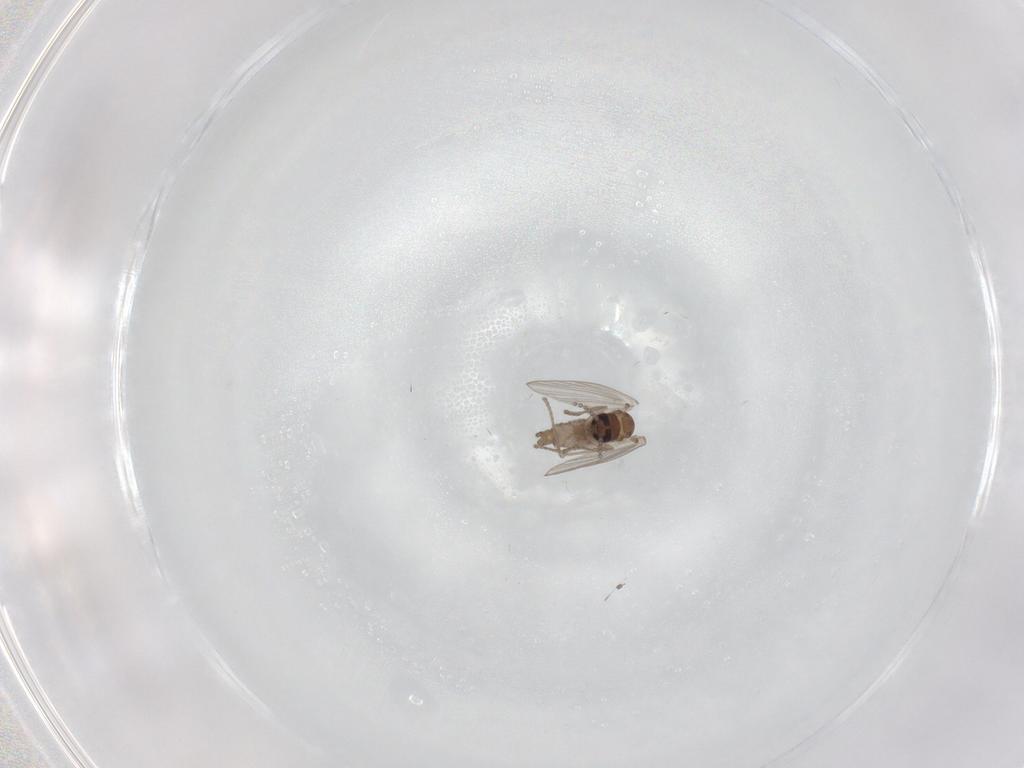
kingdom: Animalia
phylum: Arthropoda
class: Insecta
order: Diptera
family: Psychodidae
